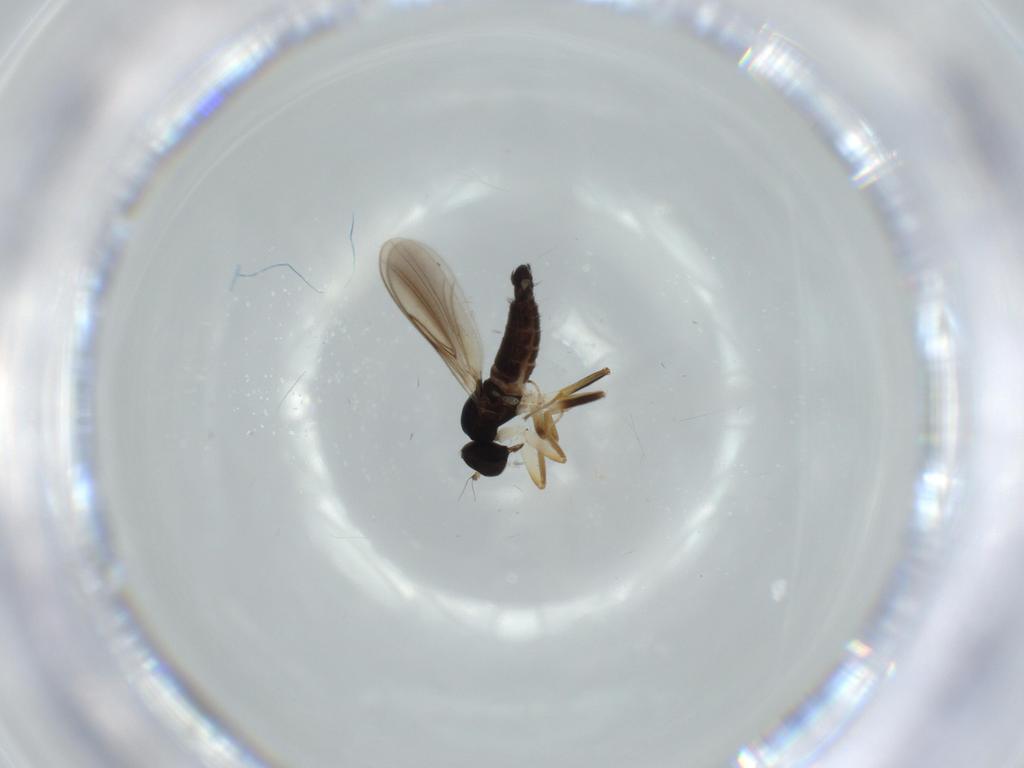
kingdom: Animalia
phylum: Arthropoda
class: Insecta
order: Diptera
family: Hybotidae
